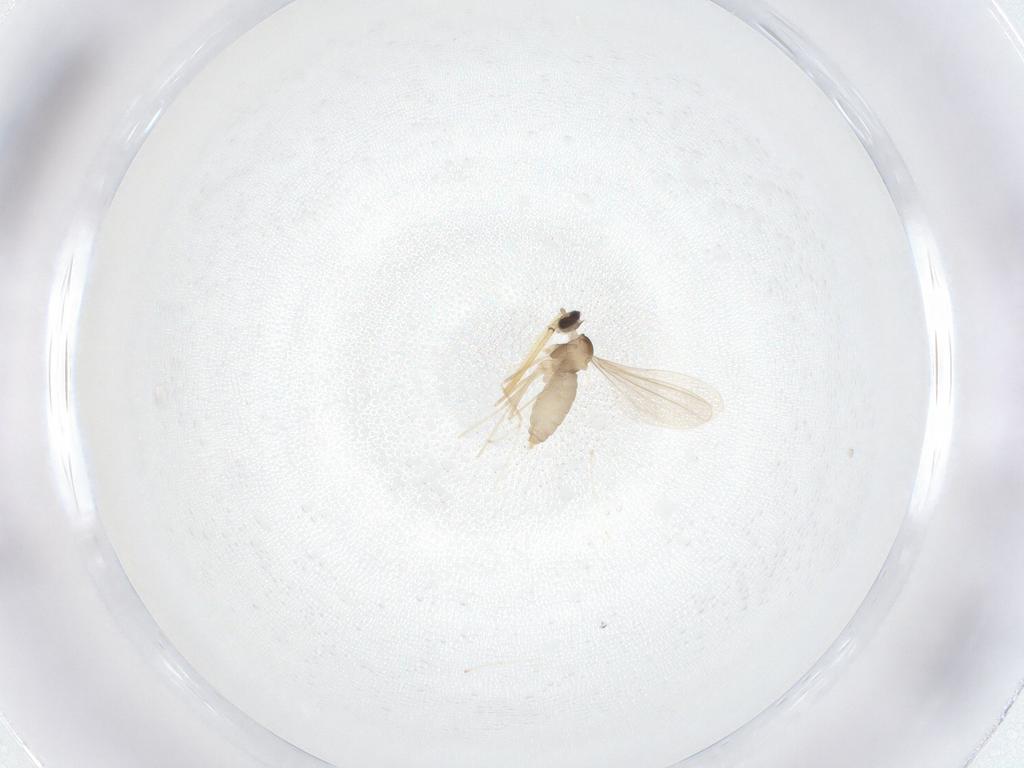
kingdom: Animalia
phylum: Arthropoda
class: Insecta
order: Diptera
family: Cecidomyiidae
